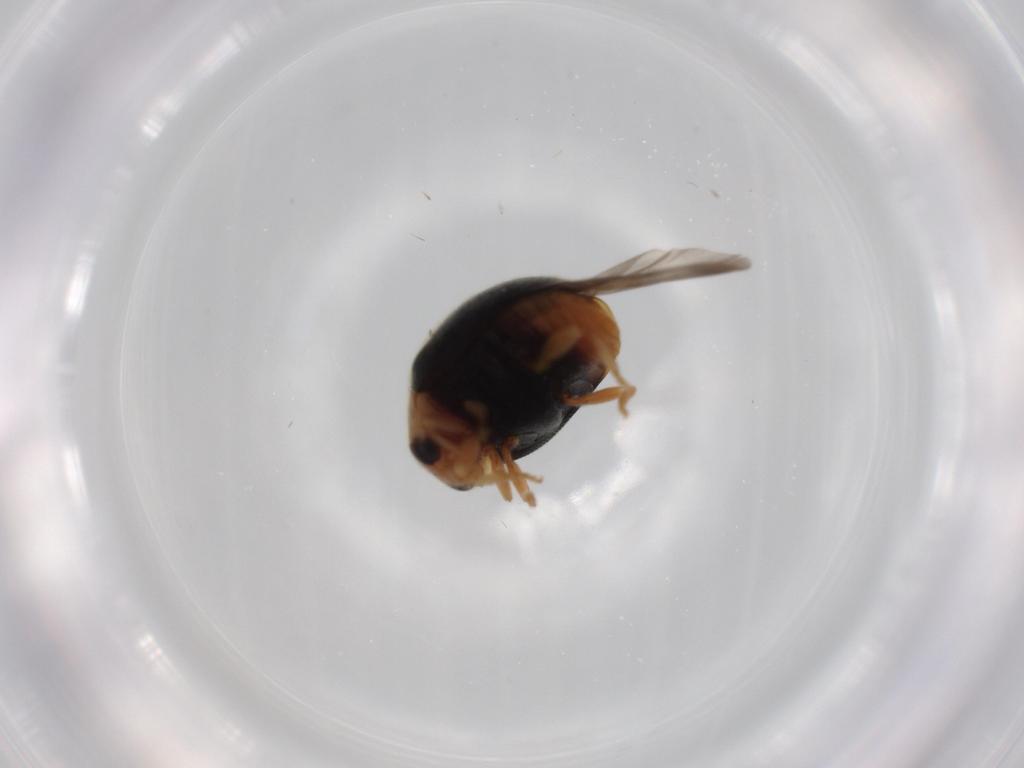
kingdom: Animalia
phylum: Arthropoda
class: Insecta
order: Coleoptera
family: Coccinellidae
